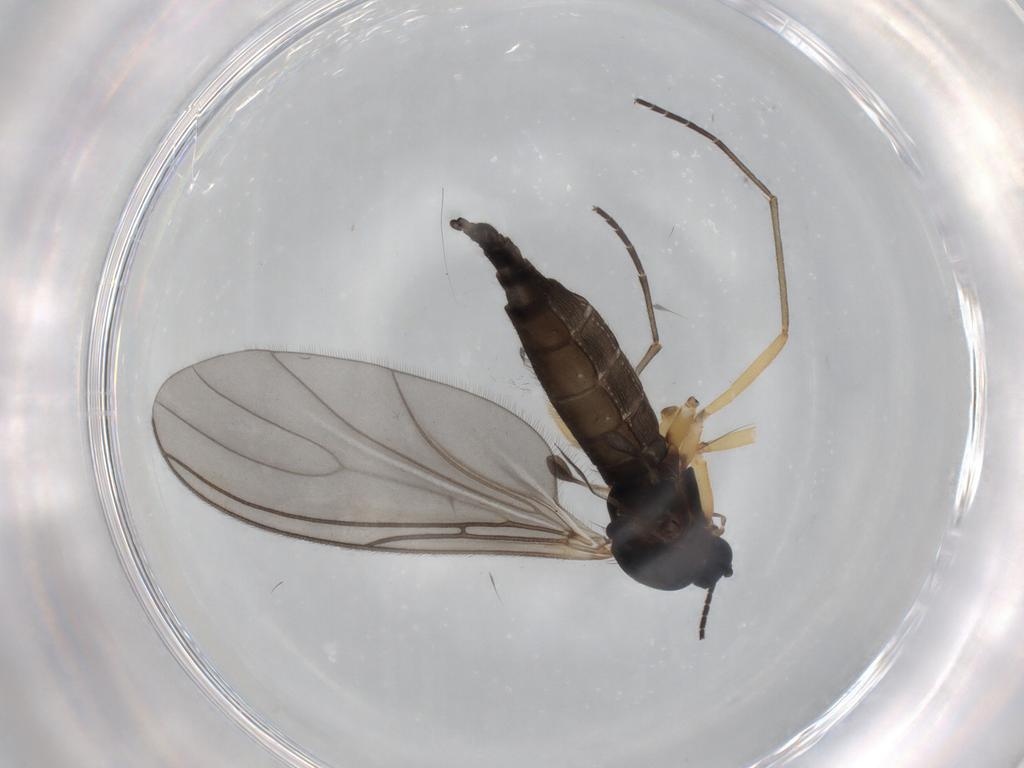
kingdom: Animalia
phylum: Arthropoda
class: Insecta
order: Diptera
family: Sciaridae
